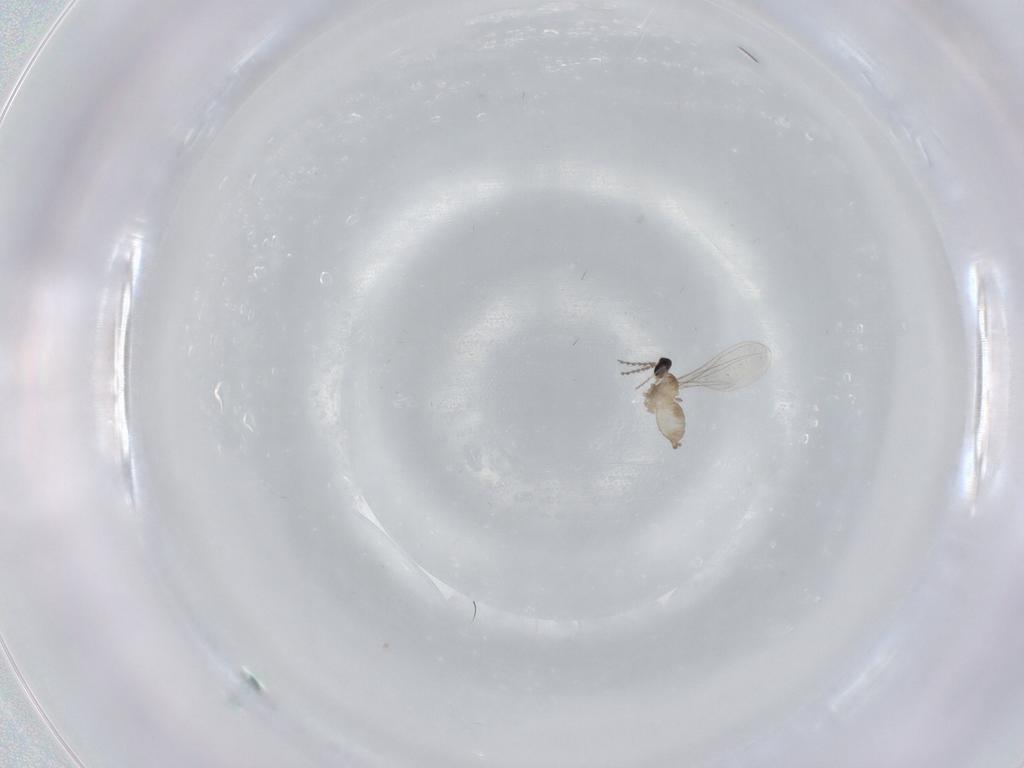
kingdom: Animalia
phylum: Arthropoda
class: Insecta
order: Diptera
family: Cecidomyiidae
